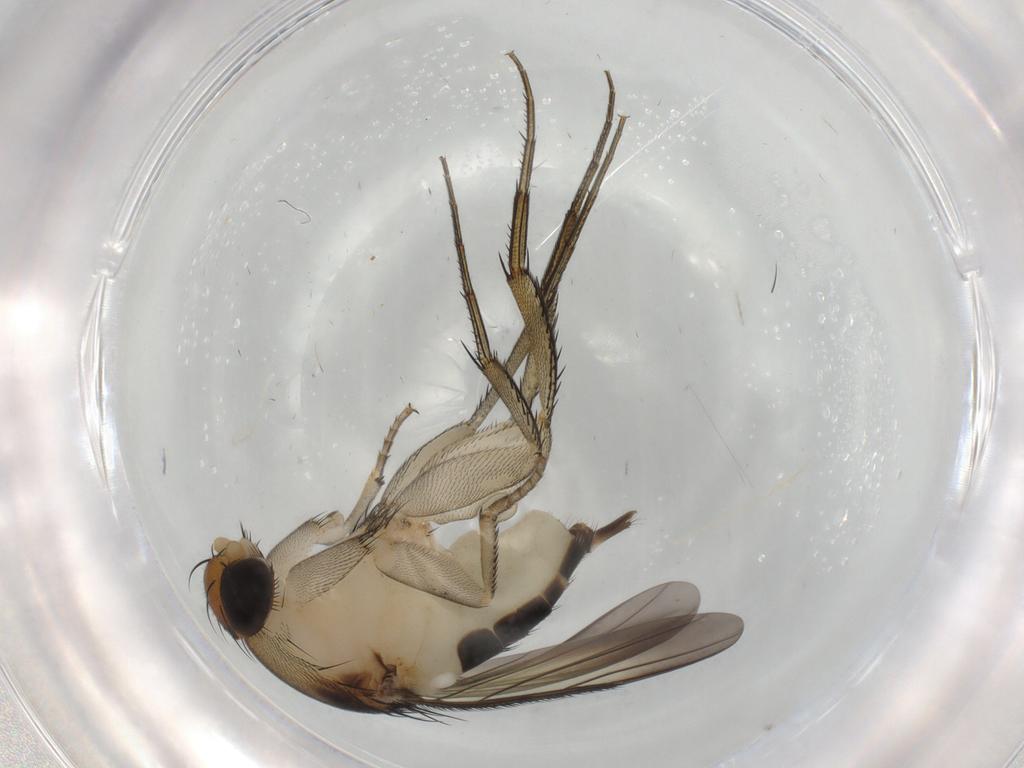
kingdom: Animalia
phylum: Arthropoda
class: Insecta
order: Diptera
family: Phoridae
